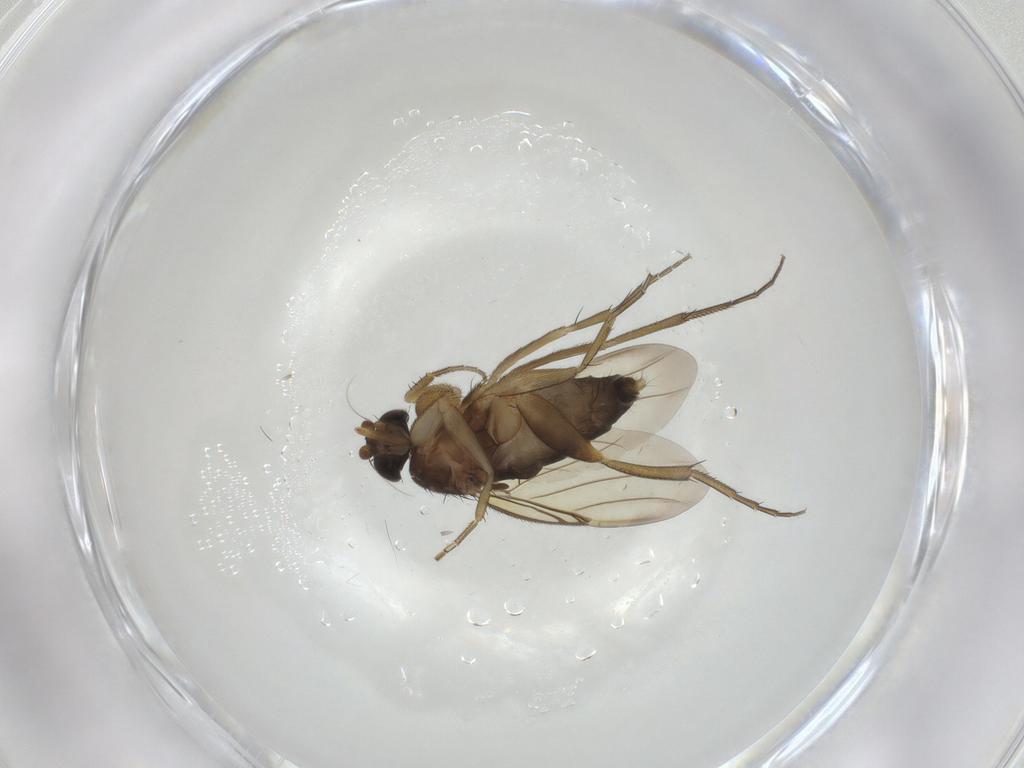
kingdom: Animalia
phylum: Arthropoda
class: Insecta
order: Diptera
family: Phoridae
